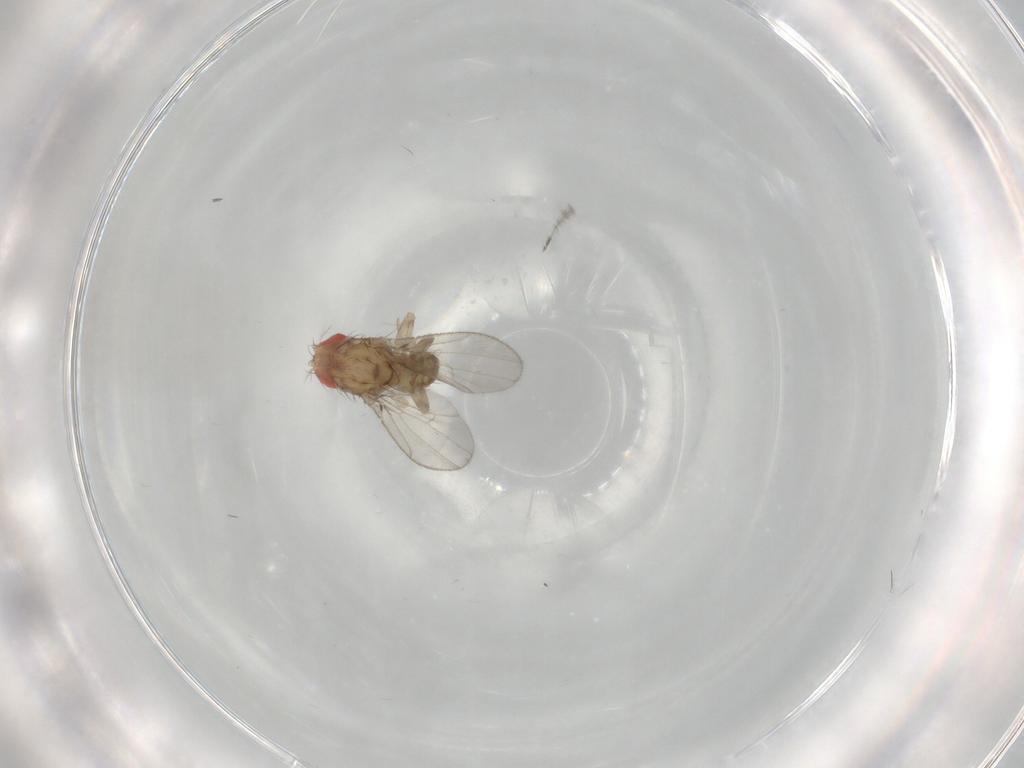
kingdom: Animalia
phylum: Arthropoda
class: Insecta
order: Diptera
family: Drosophilidae
